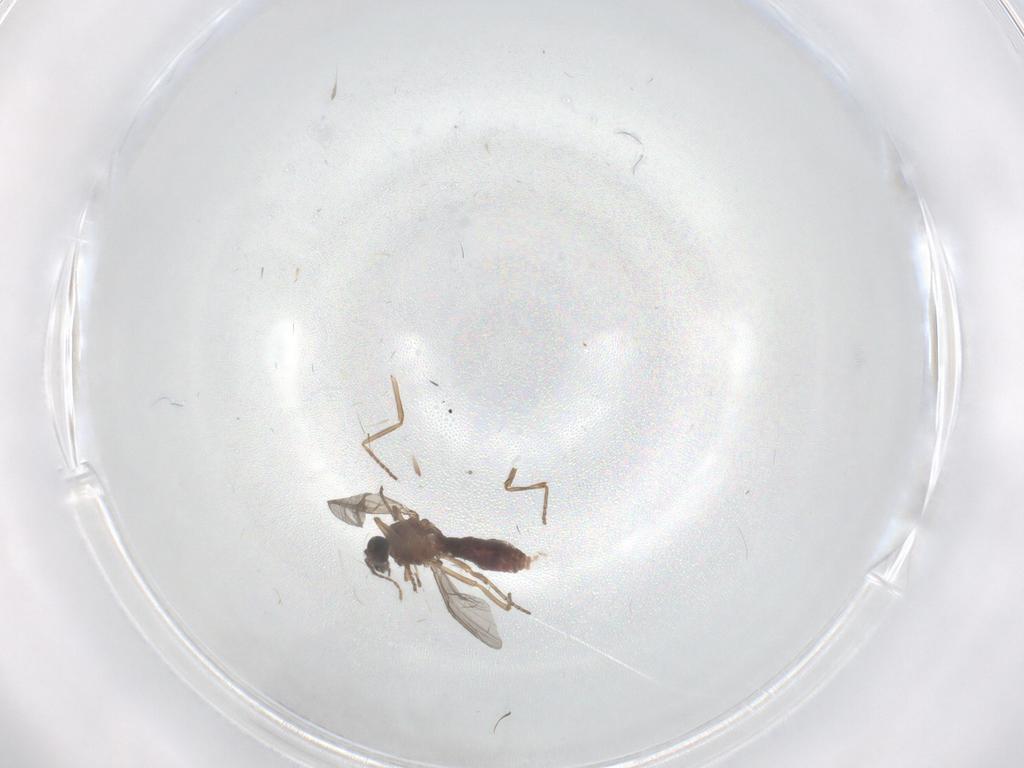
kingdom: Animalia
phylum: Arthropoda
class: Insecta
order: Diptera
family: Ceratopogonidae
